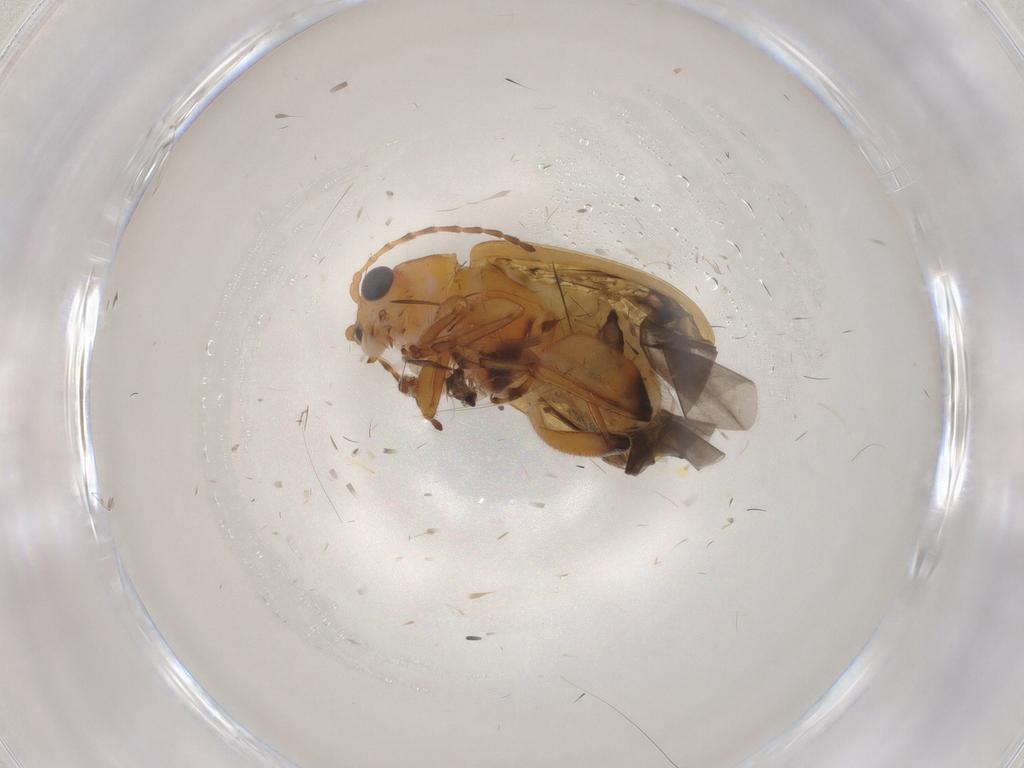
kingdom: Animalia
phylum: Arthropoda
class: Insecta
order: Coleoptera
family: Chrysomelidae
